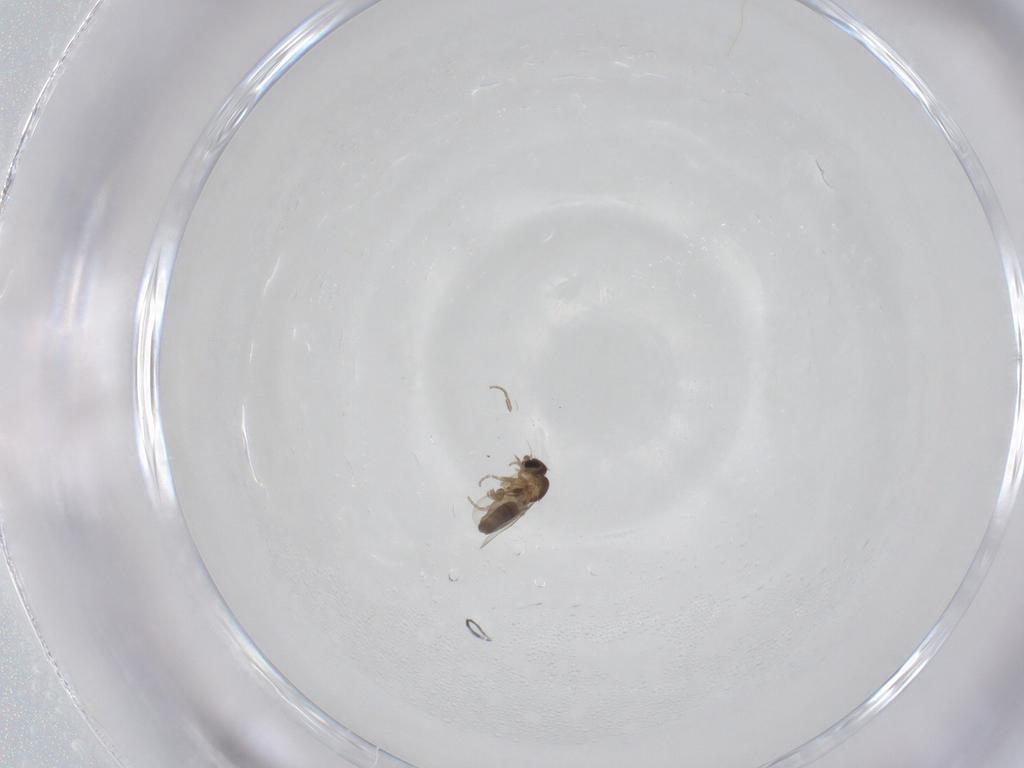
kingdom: Animalia
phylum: Arthropoda
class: Insecta
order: Diptera
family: Phoridae
